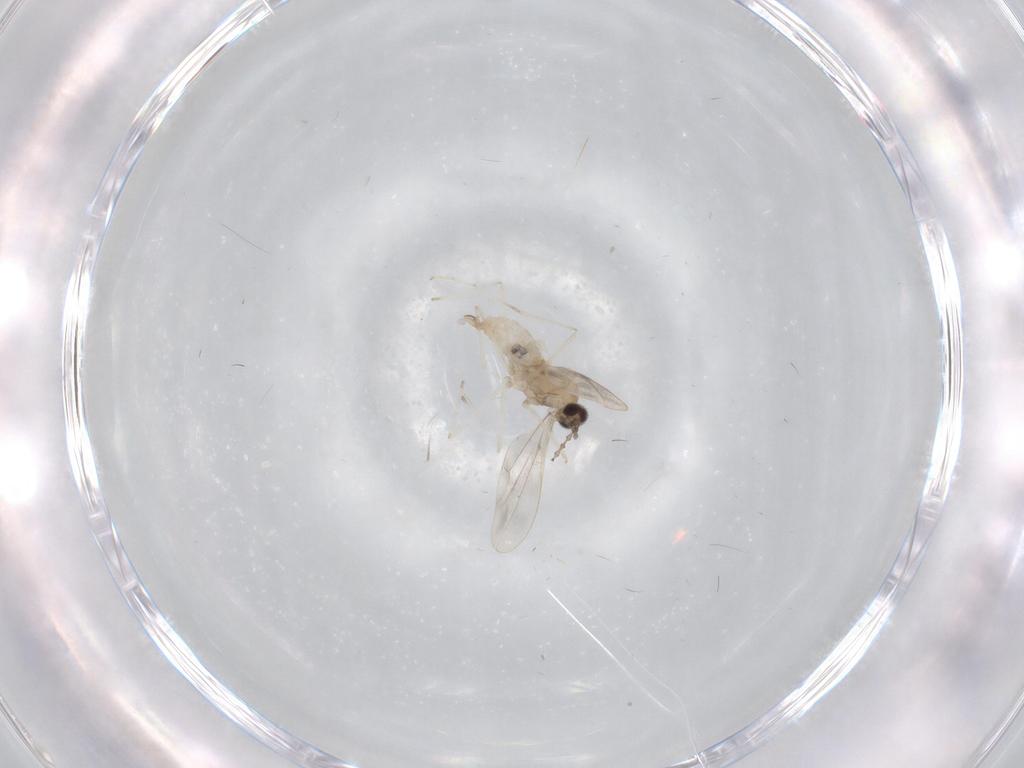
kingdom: Animalia
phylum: Arthropoda
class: Insecta
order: Diptera
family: Cecidomyiidae
